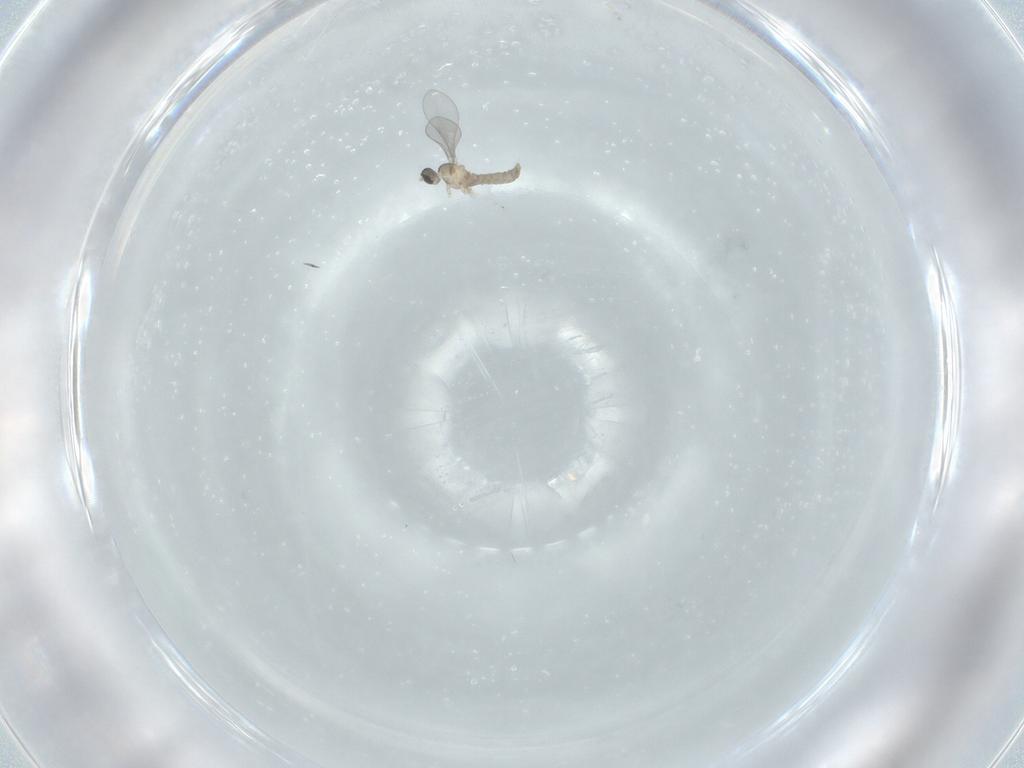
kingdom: Animalia
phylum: Arthropoda
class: Insecta
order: Diptera
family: Cecidomyiidae
